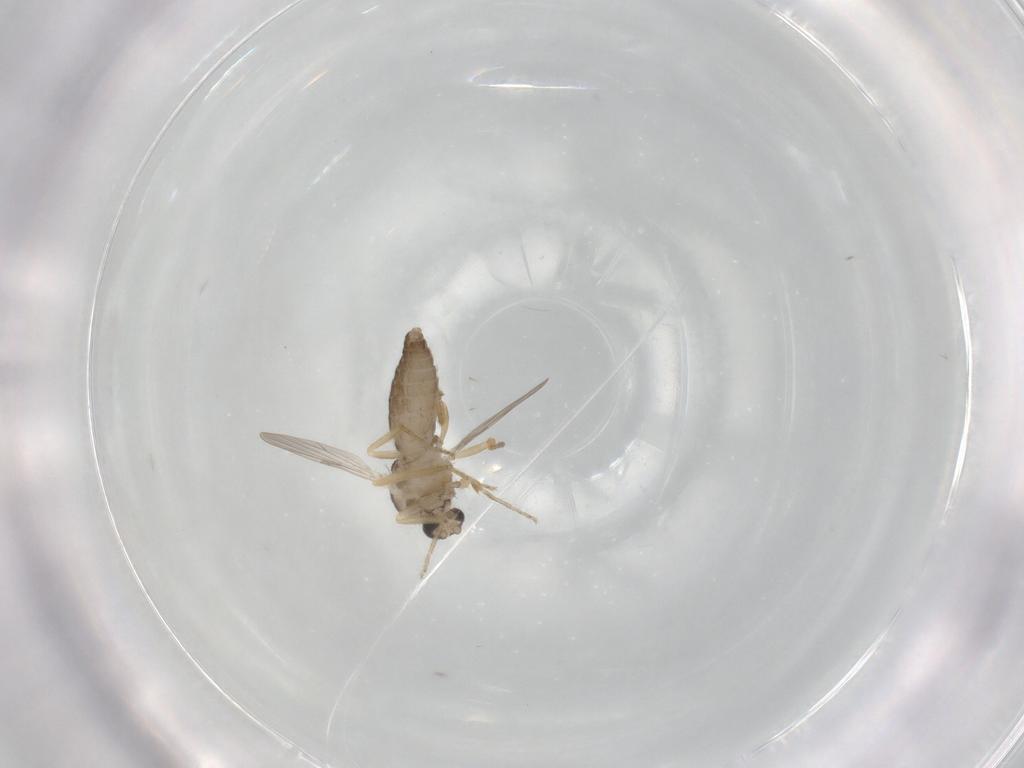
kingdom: Animalia
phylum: Arthropoda
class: Insecta
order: Diptera
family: Ceratopogonidae
